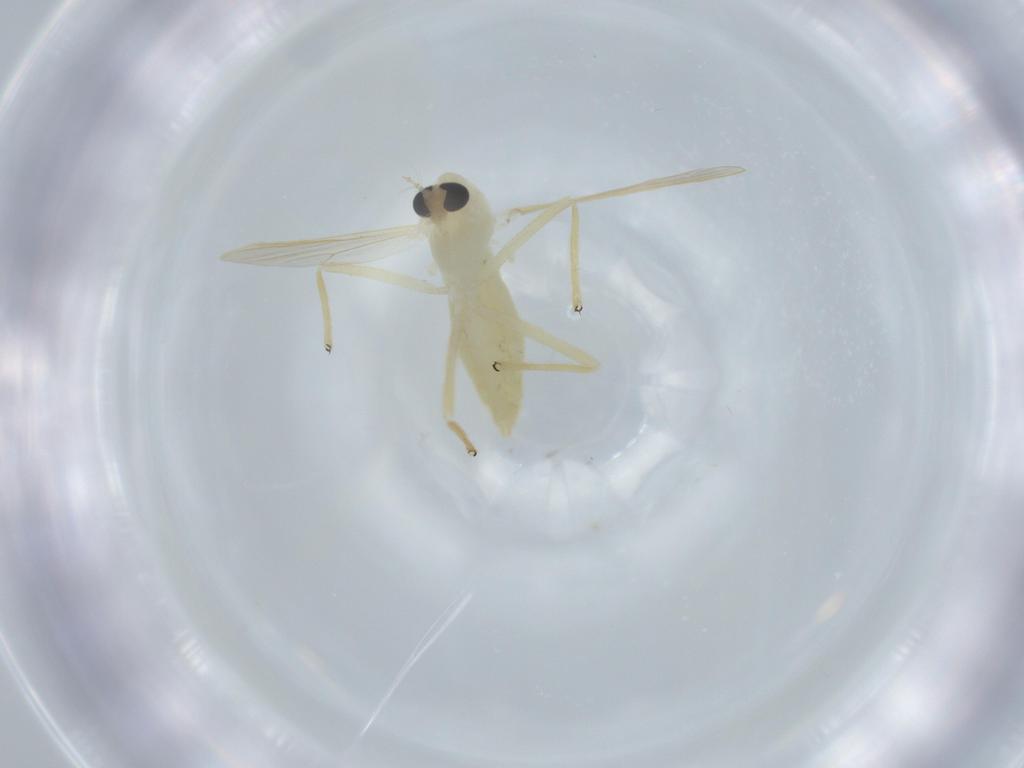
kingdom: Animalia
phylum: Arthropoda
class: Insecta
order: Diptera
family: Chironomidae
